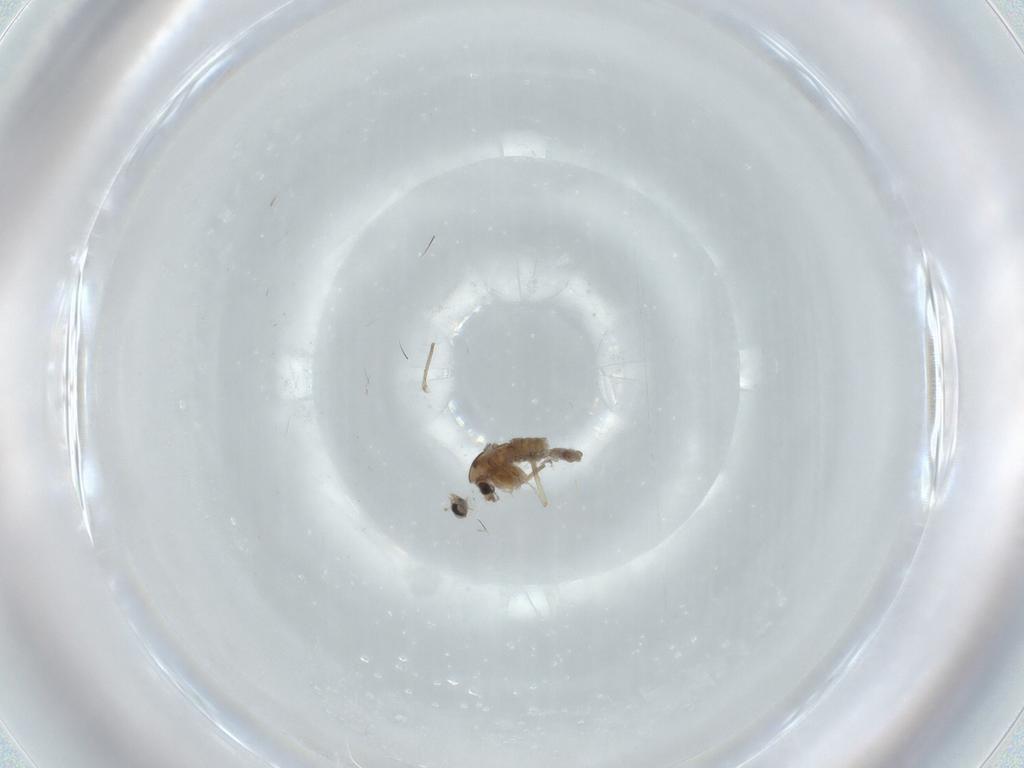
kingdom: Animalia
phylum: Arthropoda
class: Insecta
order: Diptera
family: Chironomidae
